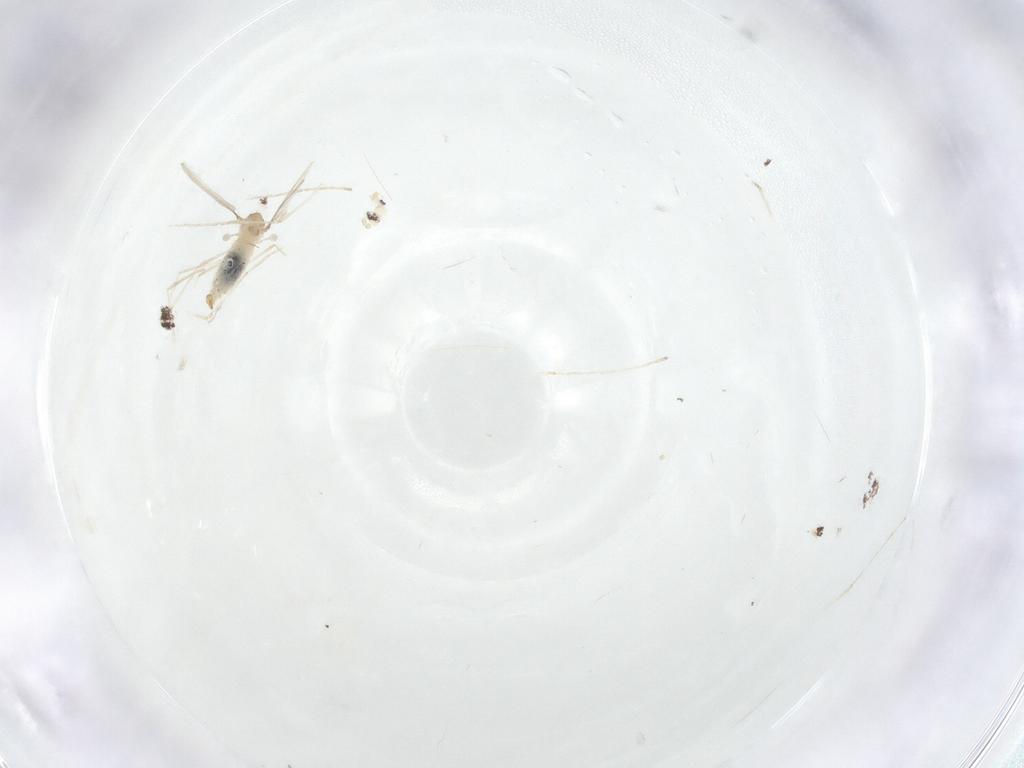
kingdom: Animalia
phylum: Arthropoda
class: Insecta
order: Diptera
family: Cecidomyiidae
